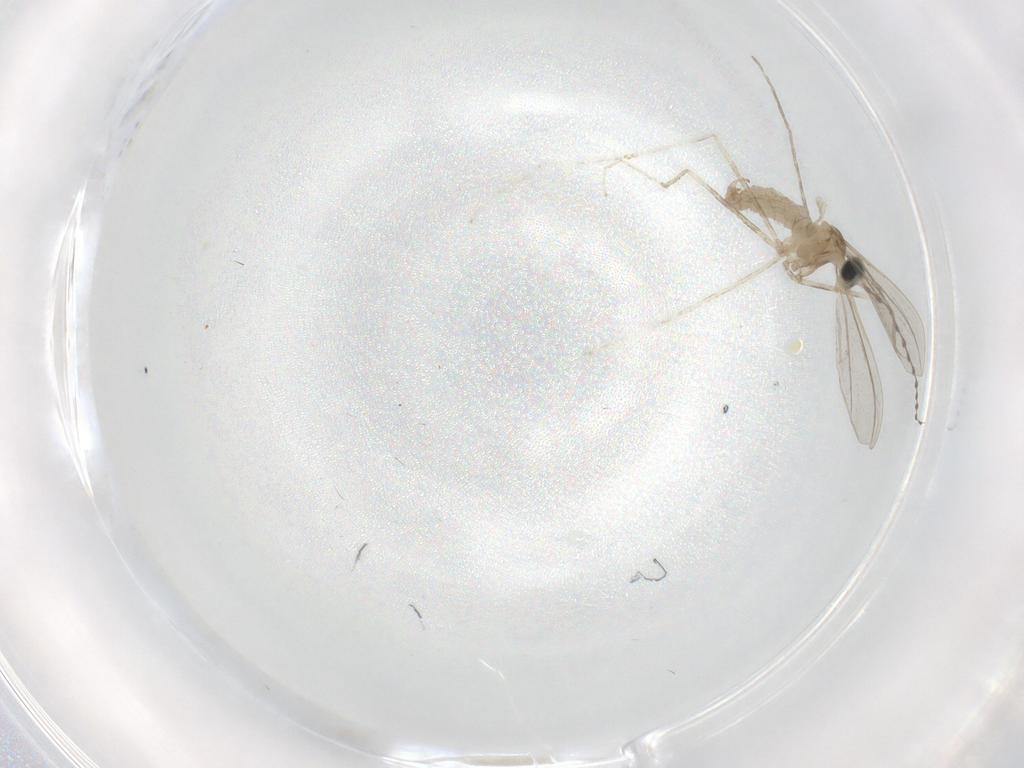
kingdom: Animalia
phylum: Arthropoda
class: Insecta
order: Diptera
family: Cecidomyiidae
